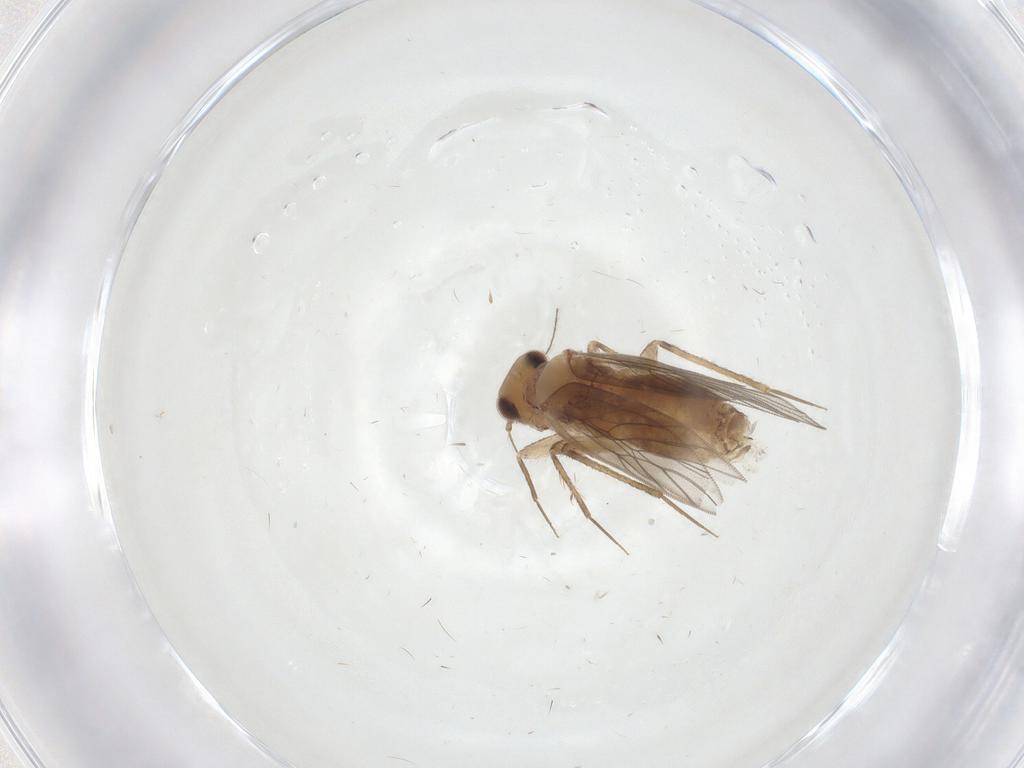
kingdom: Animalia
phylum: Arthropoda
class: Insecta
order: Psocodea
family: Lepidopsocidae
